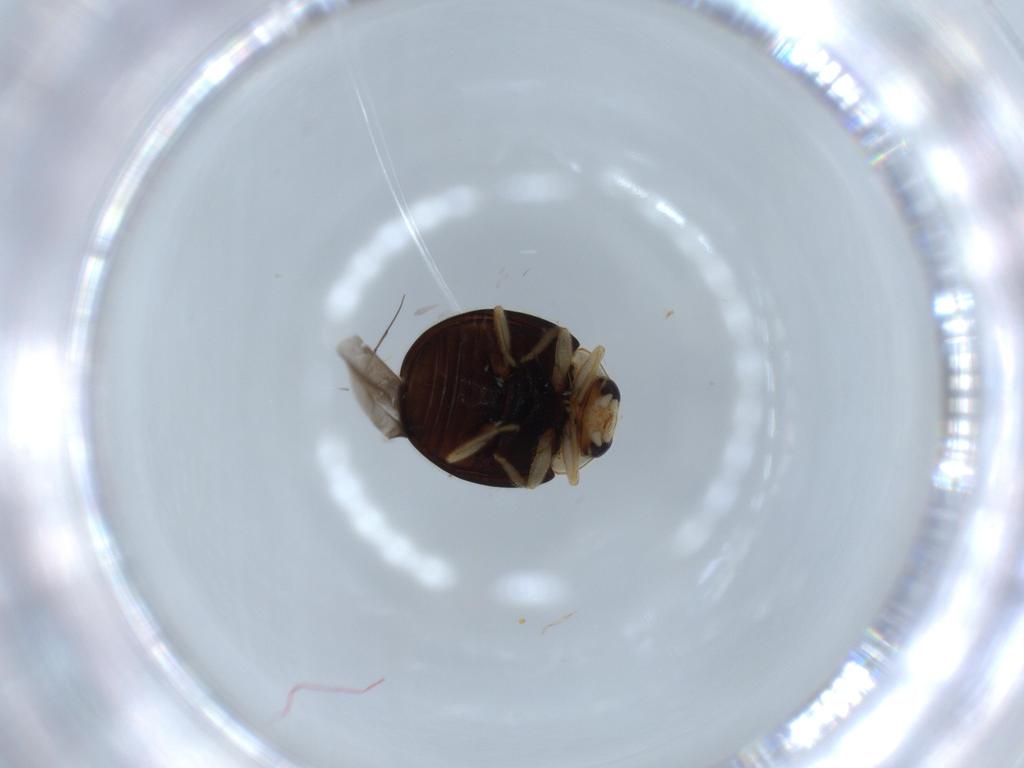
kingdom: Animalia
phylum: Arthropoda
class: Insecta
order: Coleoptera
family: Coccinellidae
